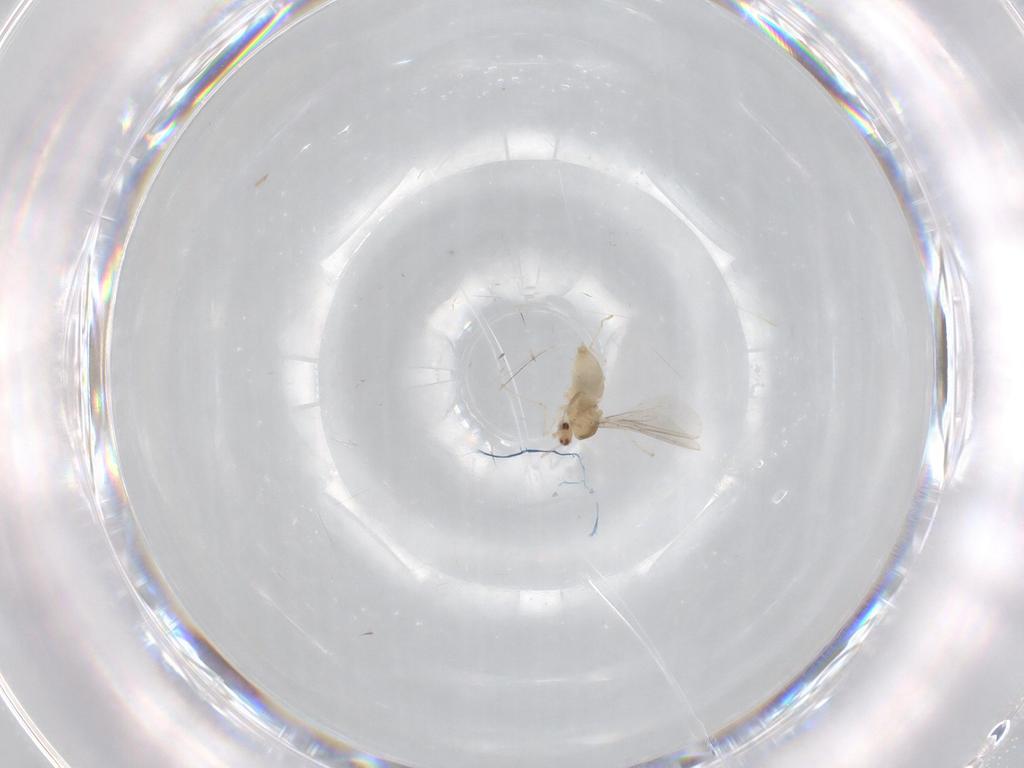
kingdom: Animalia
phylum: Arthropoda
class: Insecta
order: Diptera
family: Cecidomyiidae
